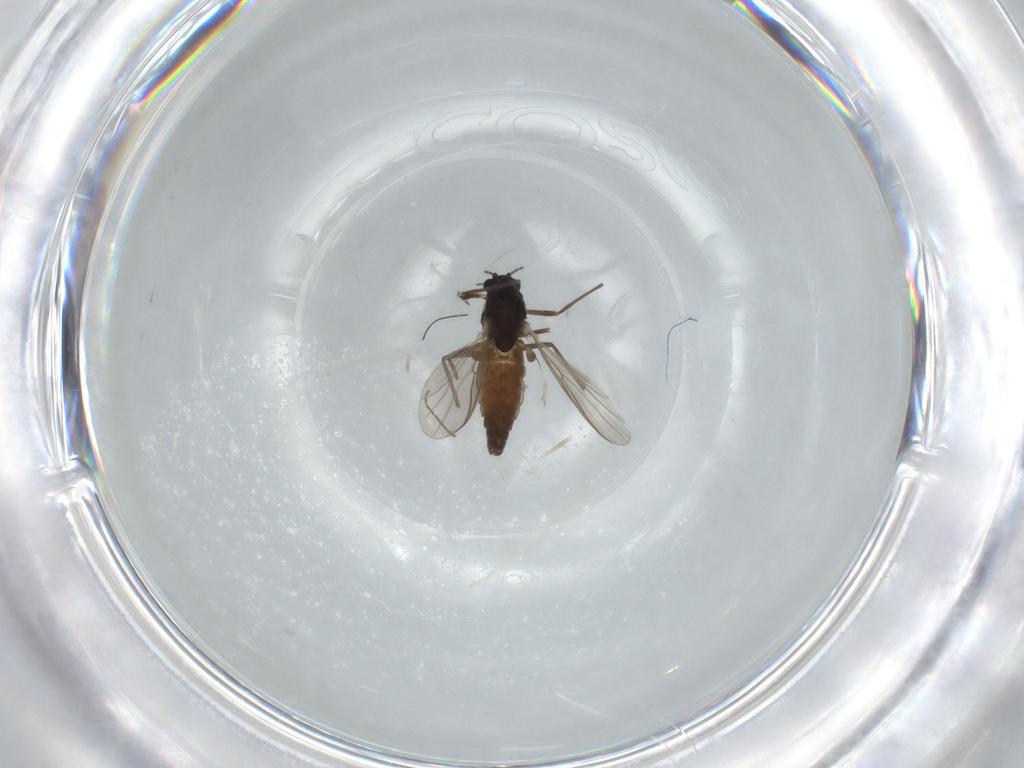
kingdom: Animalia
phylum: Arthropoda
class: Insecta
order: Diptera
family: Chironomidae
